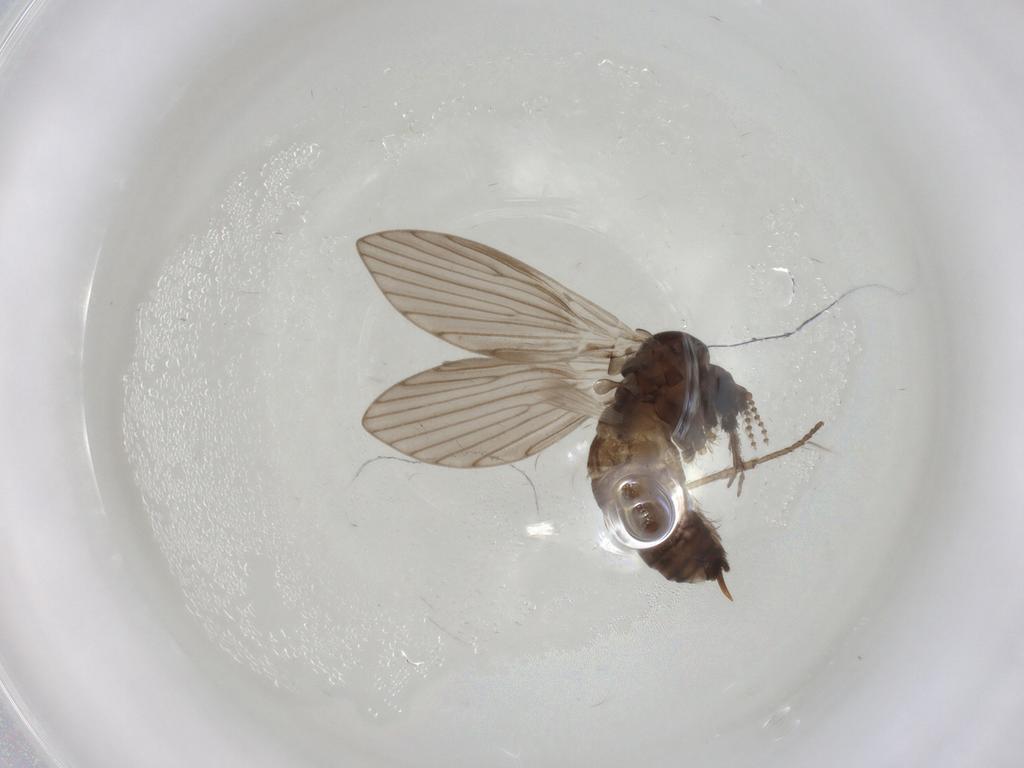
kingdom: Animalia
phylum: Arthropoda
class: Insecta
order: Diptera
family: Psychodidae
